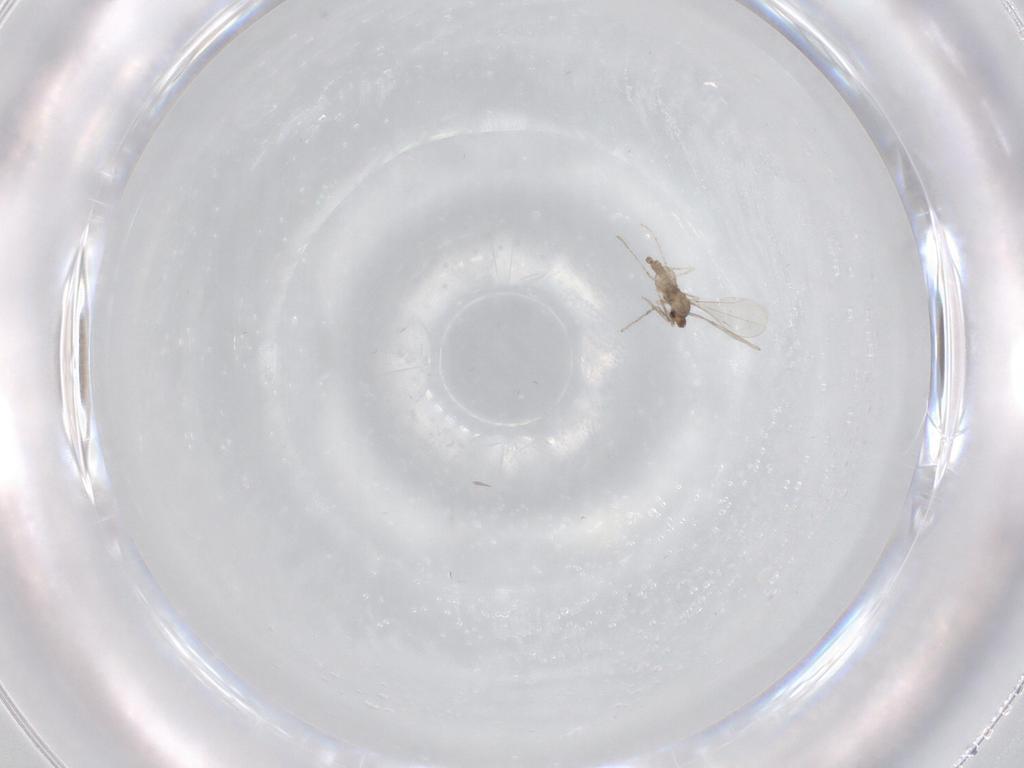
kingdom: Animalia
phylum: Arthropoda
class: Insecta
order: Diptera
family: Cecidomyiidae
